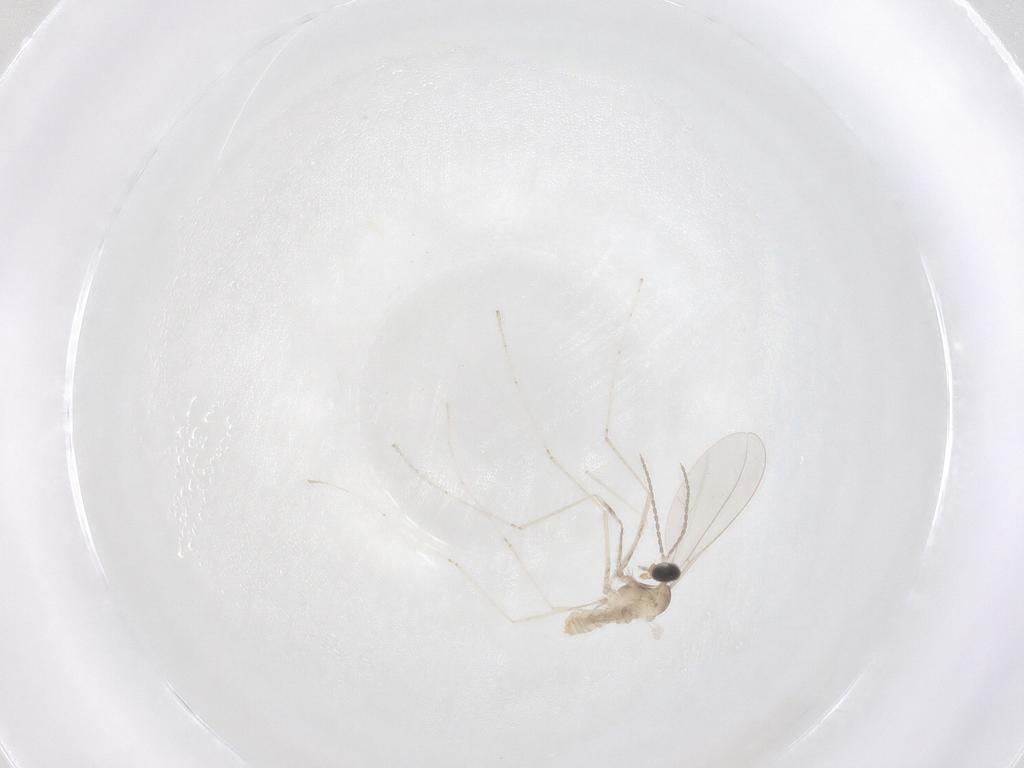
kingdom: Animalia
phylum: Arthropoda
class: Insecta
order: Diptera
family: Cecidomyiidae
